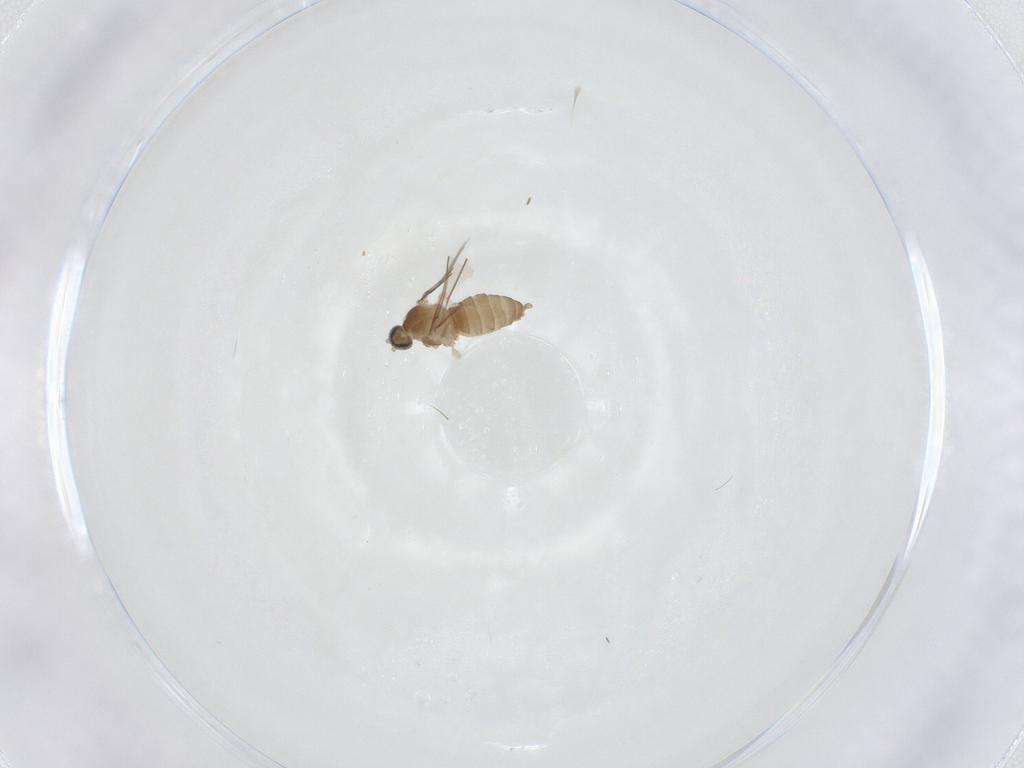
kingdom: Animalia
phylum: Arthropoda
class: Insecta
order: Diptera
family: Cecidomyiidae
